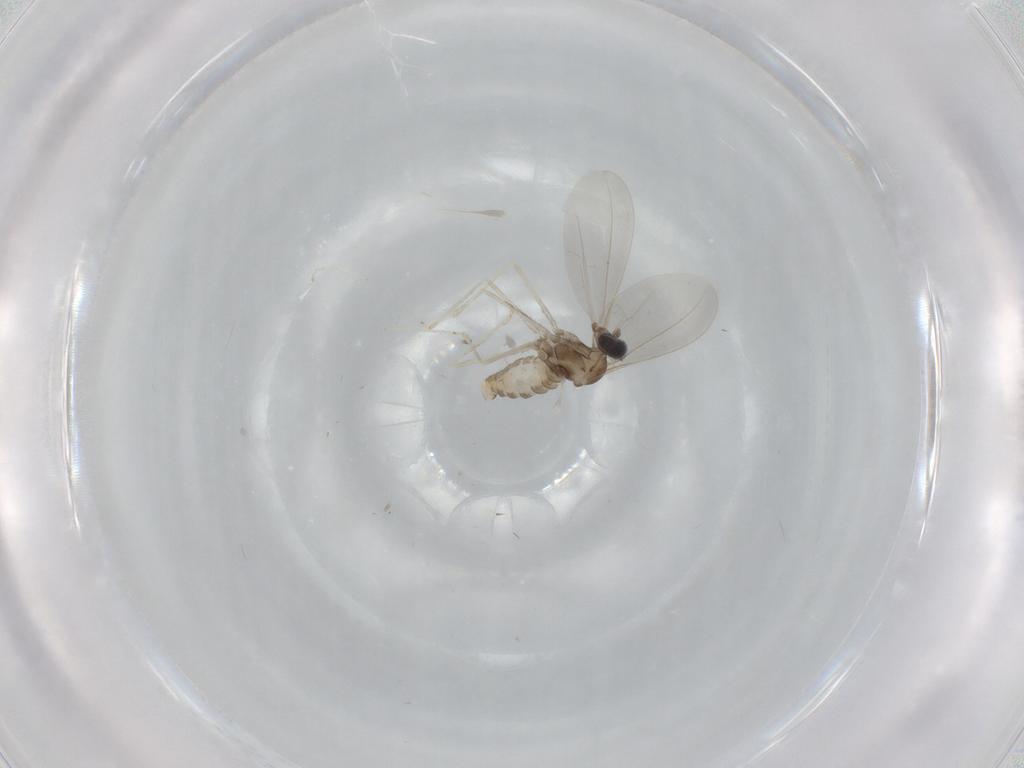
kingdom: Animalia
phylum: Arthropoda
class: Insecta
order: Diptera
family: Cecidomyiidae
